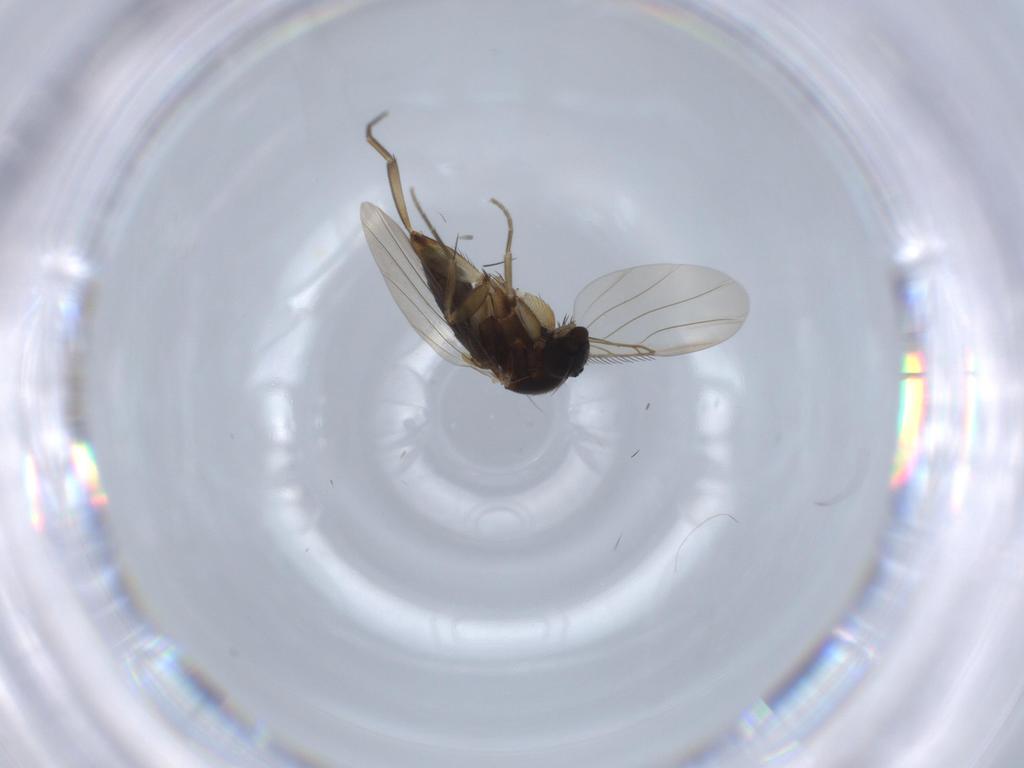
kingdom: Animalia
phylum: Arthropoda
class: Insecta
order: Diptera
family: Phoridae
